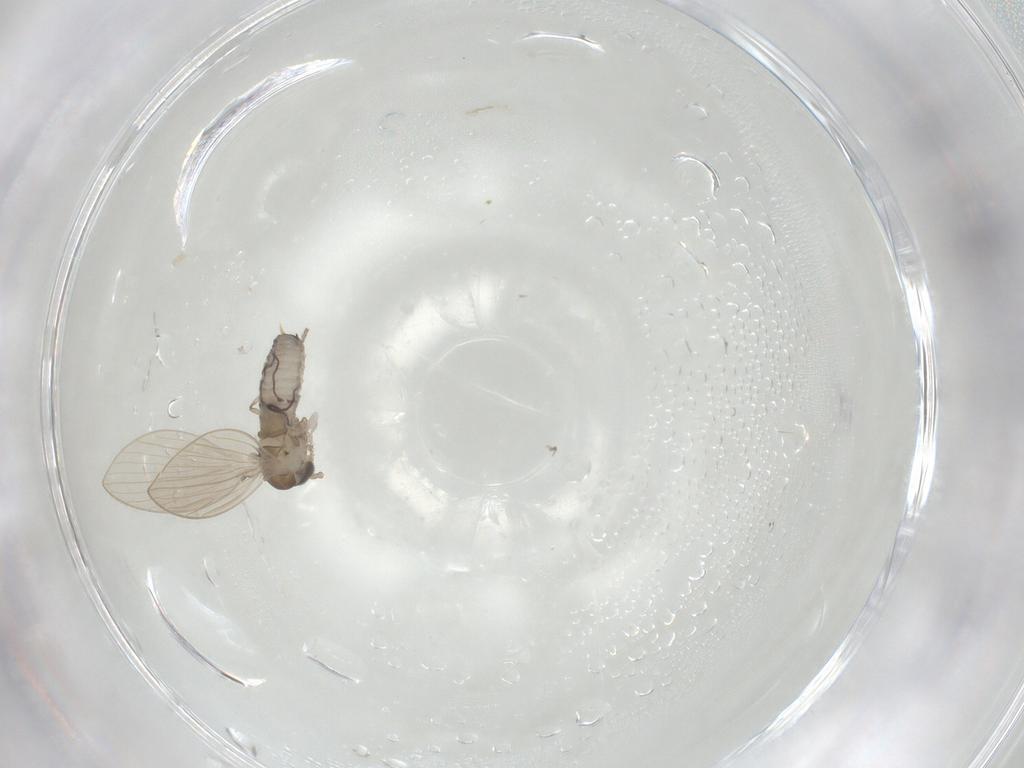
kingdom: Animalia
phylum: Arthropoda
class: Insecta
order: Diptera
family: Psychodidae
